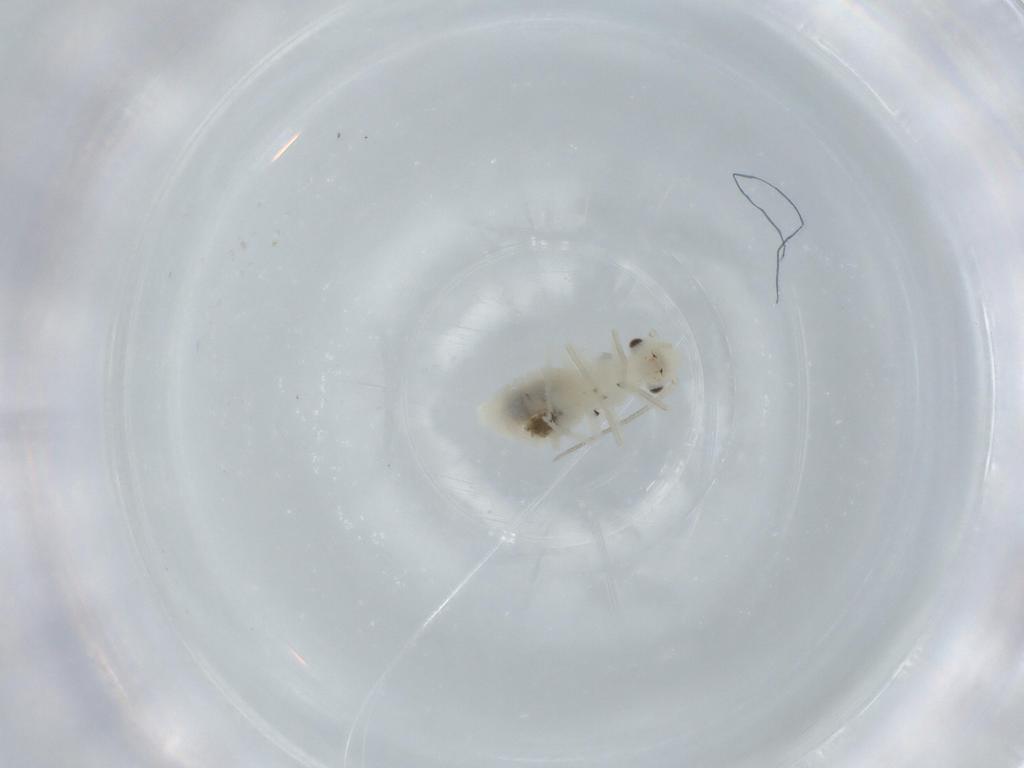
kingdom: Animalia
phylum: Arthropoda
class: Insecta
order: Psocodea
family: Caeciliusidae
